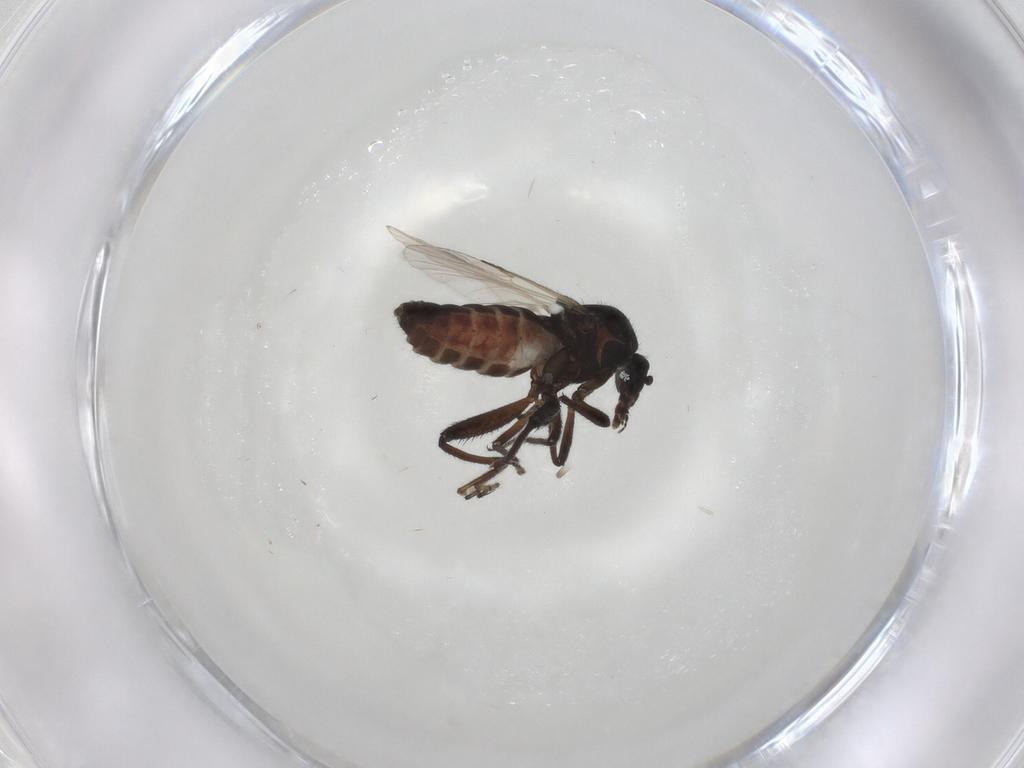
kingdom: Animalia
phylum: Arthropoda
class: Insecta
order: Diptera
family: Ceratopogonidae
